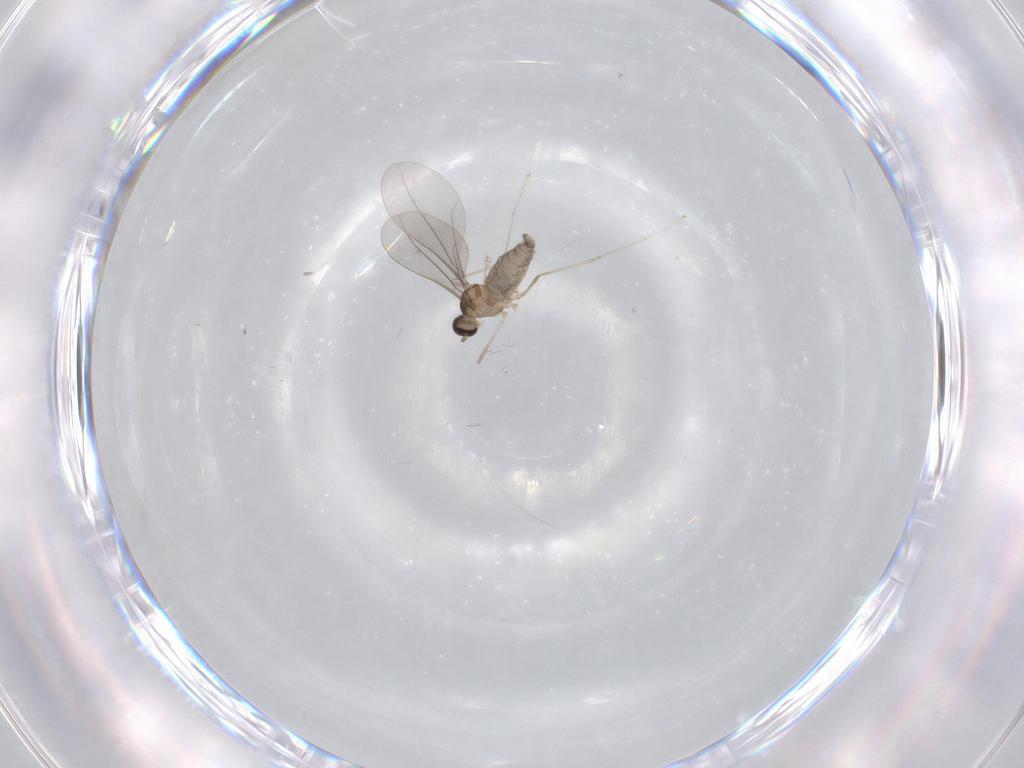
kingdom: Animalia
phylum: Arthropoda
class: Insecta
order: Diptera
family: Cecidomyiidae
